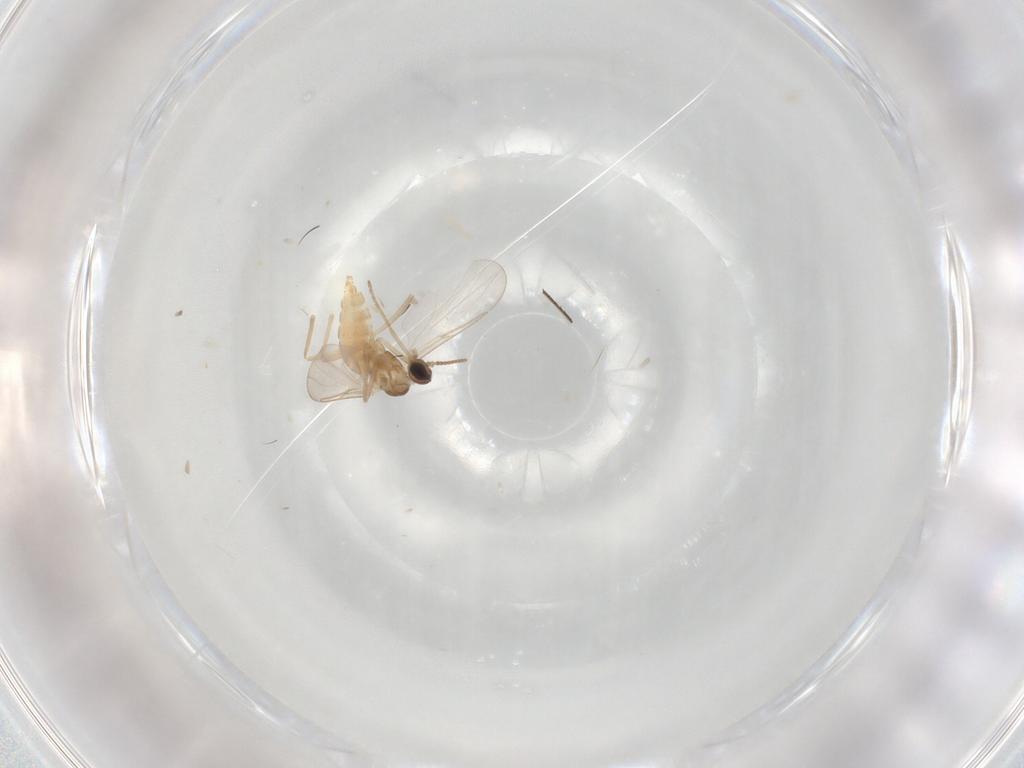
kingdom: Animalia
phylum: Arthropoda
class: Insecta
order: Diptera
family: Cecidomyiidae
